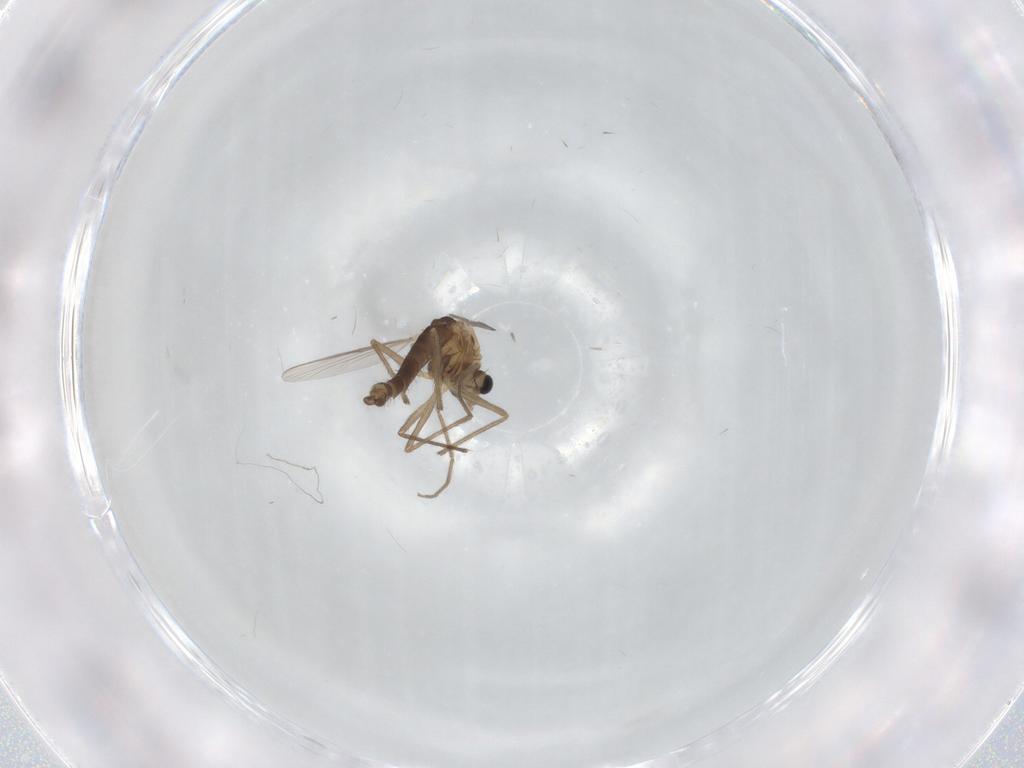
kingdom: Animalia
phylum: Arthropoda
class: Insecta
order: Diptera
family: Chironomidae
